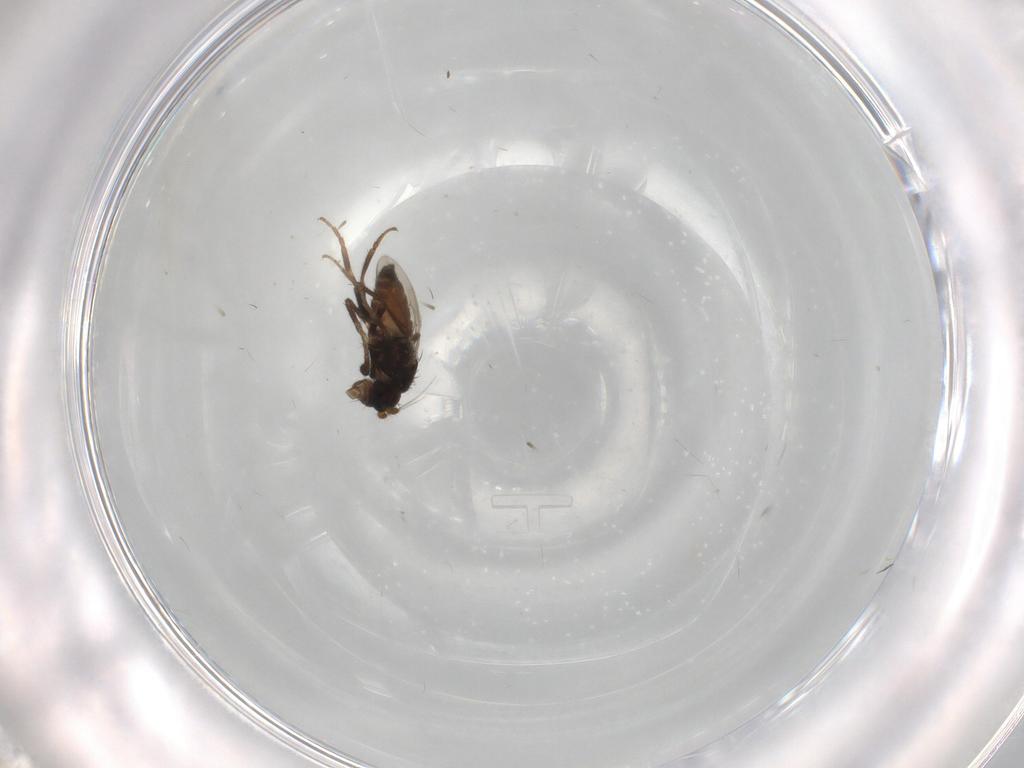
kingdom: Animalia
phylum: Arthropoda
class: Insecta
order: Diptera
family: Sphaeroceridae
